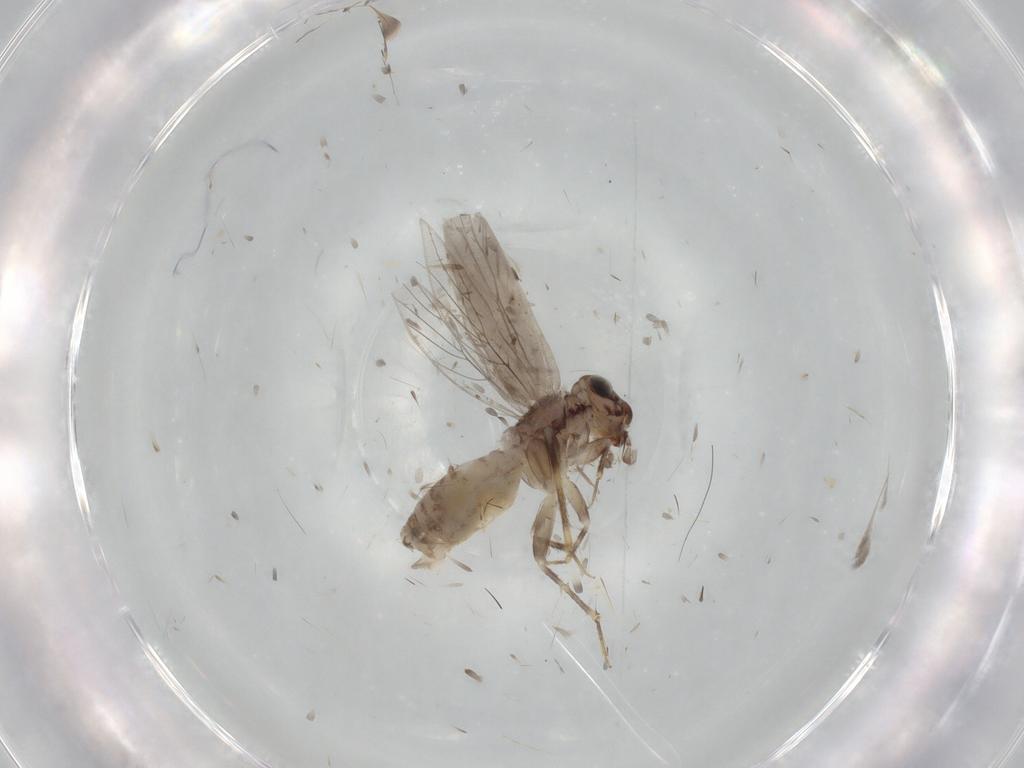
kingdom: Animalia
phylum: Arthropoda
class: Insecta
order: Psocodea
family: Lepidopsocidae
